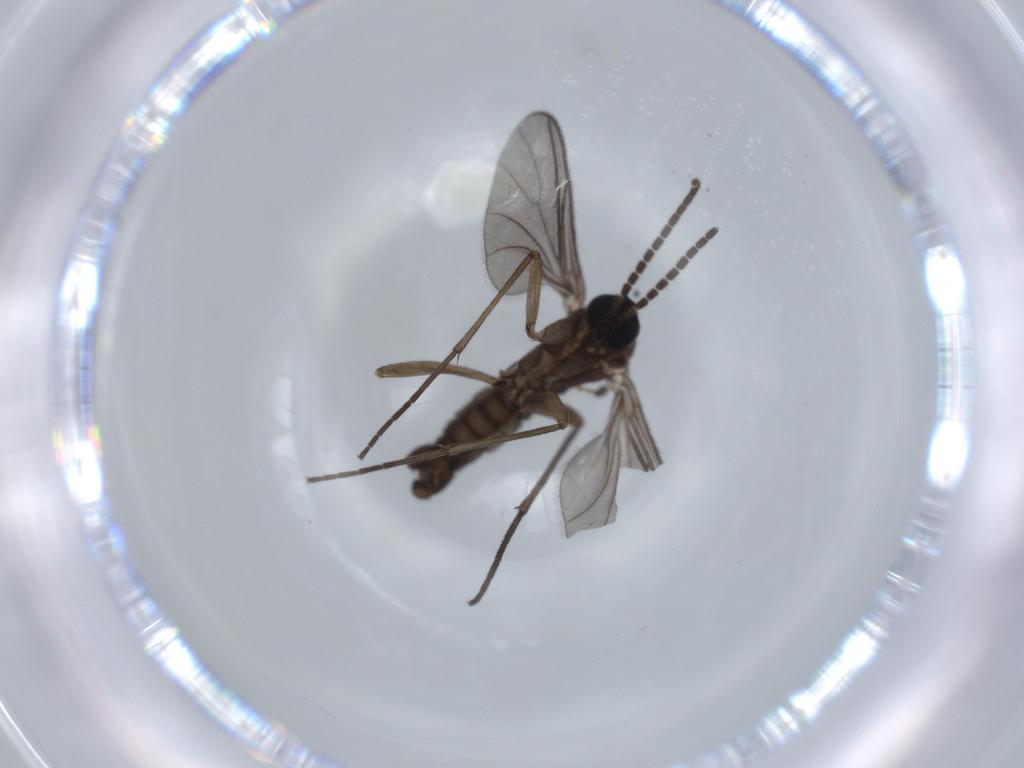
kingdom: Animalia
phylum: Arthropoda
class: Insecta
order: Diptera
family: Sciaridae
